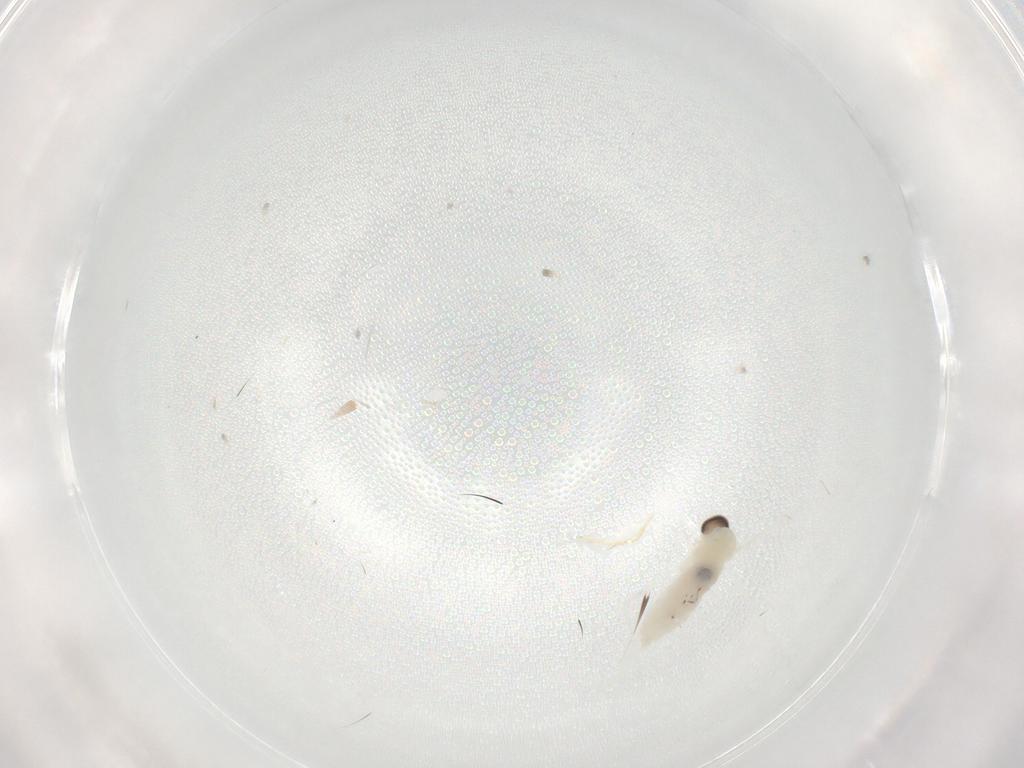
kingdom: Animalia
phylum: Arthropoda
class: Insecta
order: Diptera
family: Cecidomyiidae
